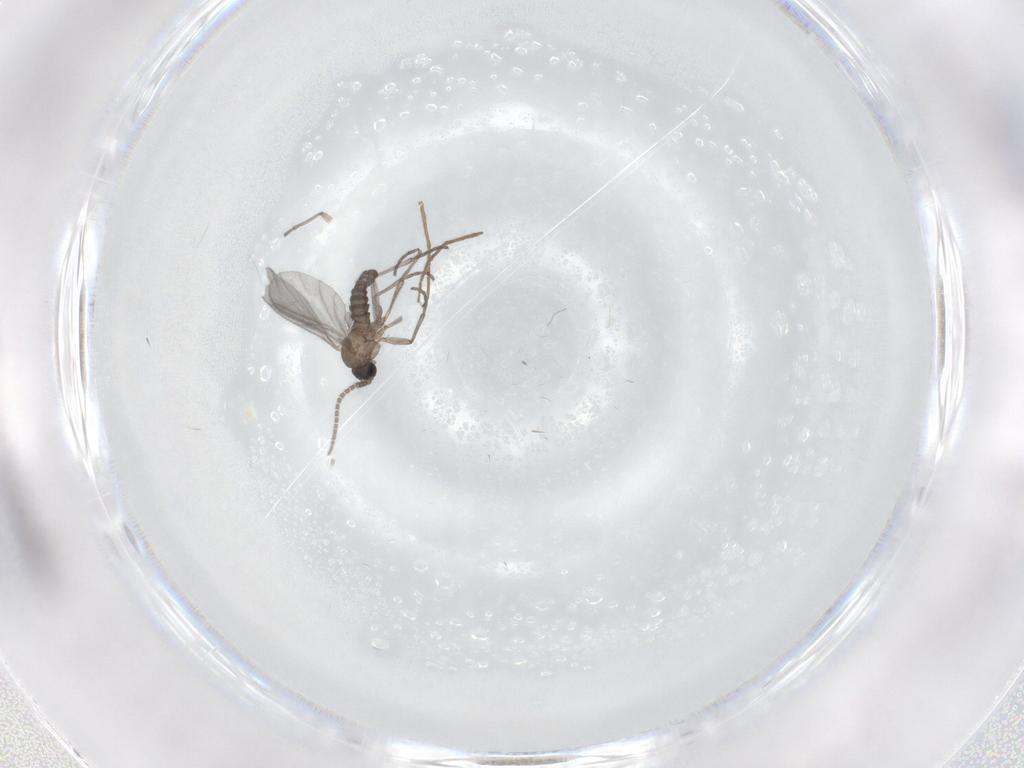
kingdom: Animalia
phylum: Arthropoda
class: Insecta
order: Diptera
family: Sciaridae
